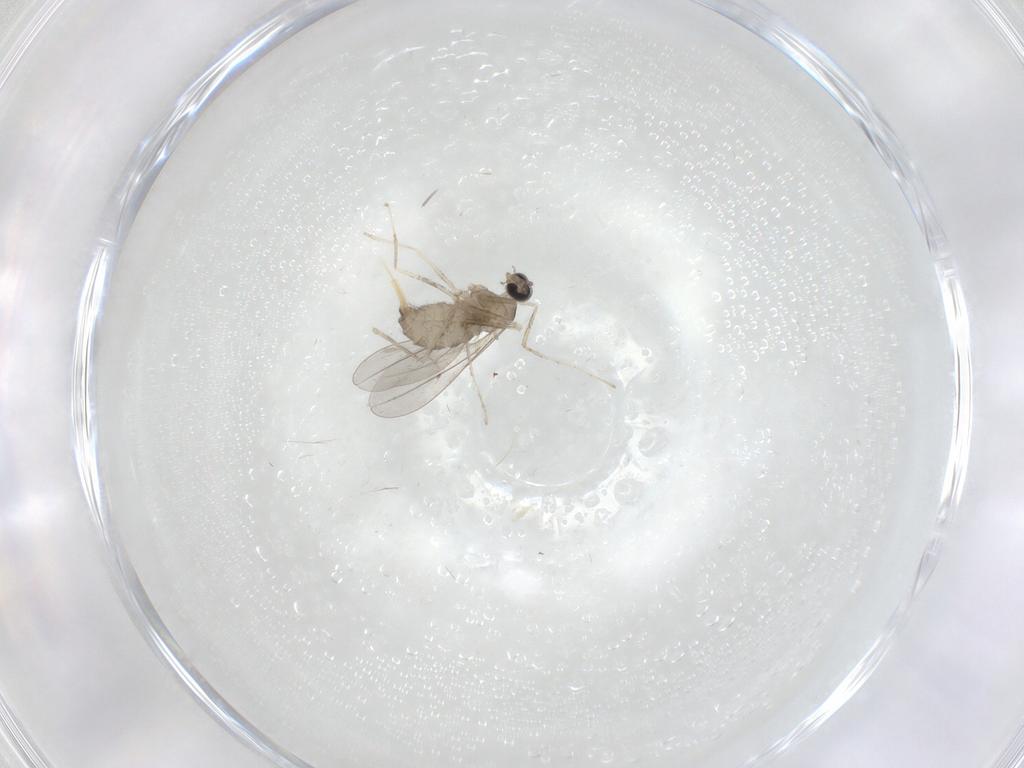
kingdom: Animalia
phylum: Arthropoda
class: Insecta
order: Diptera
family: Cecidomyiidae
